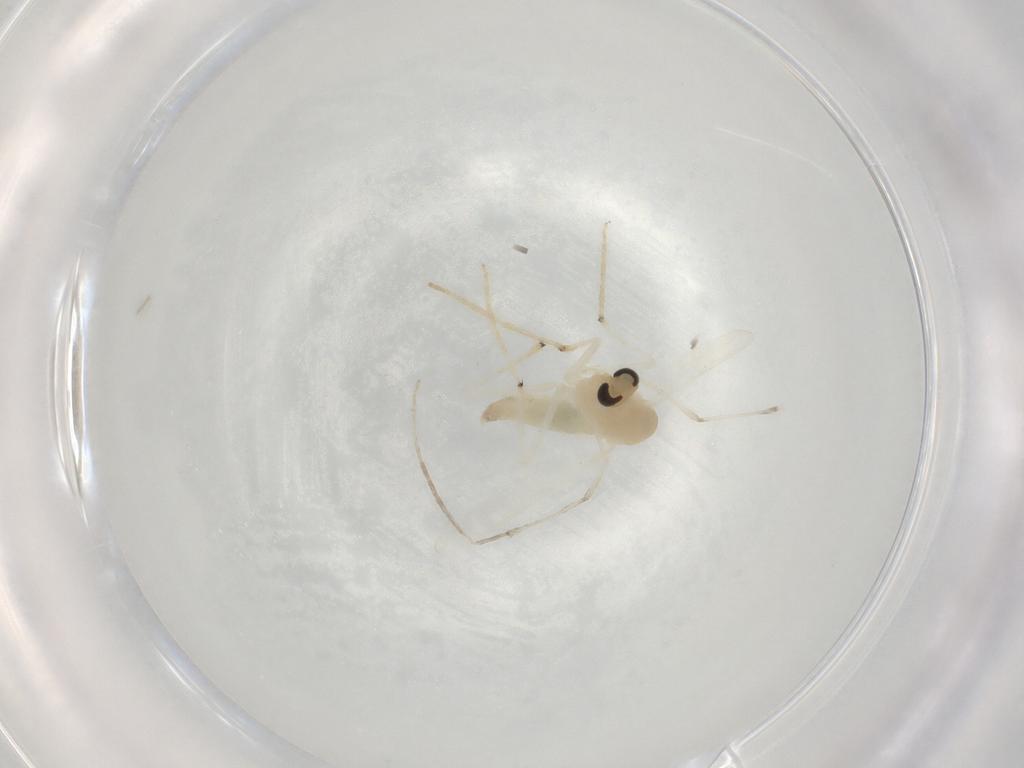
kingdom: Animalia
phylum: Arthropoda
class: Insecta
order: Diptera
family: Chironomidae
